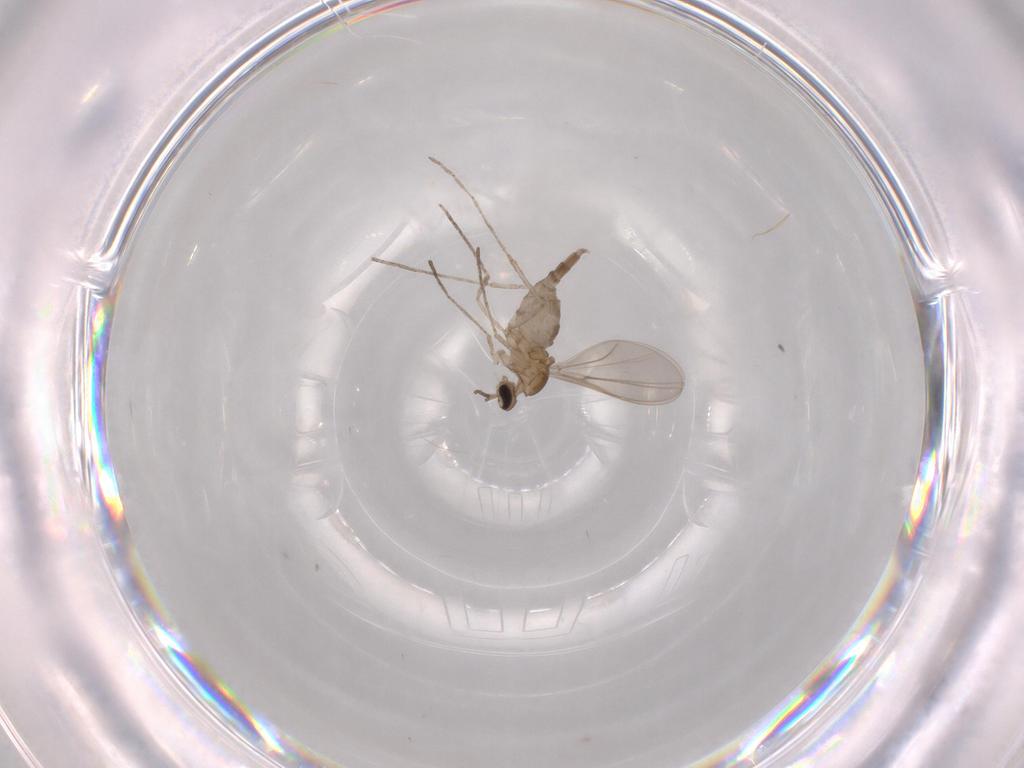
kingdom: Animalia
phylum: Arthropoda
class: Insecta
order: Diptera
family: Cecidomyiidae
